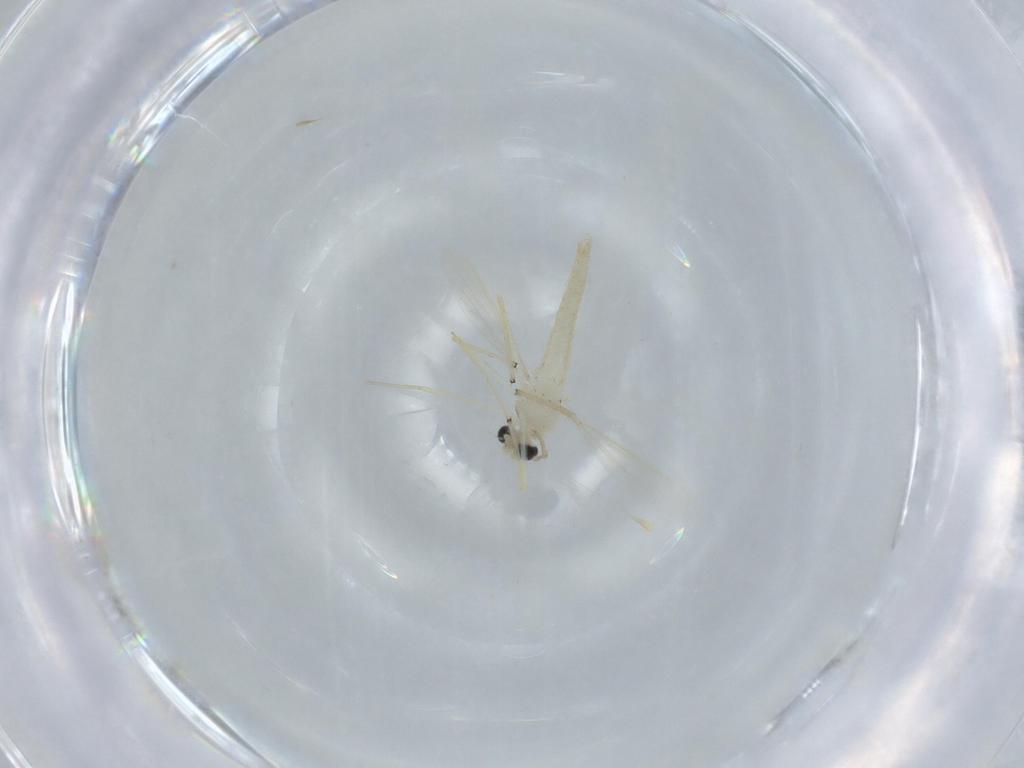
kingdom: Animalia
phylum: Arthropoda
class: Insecta
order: Diptera
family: Chironomidae
